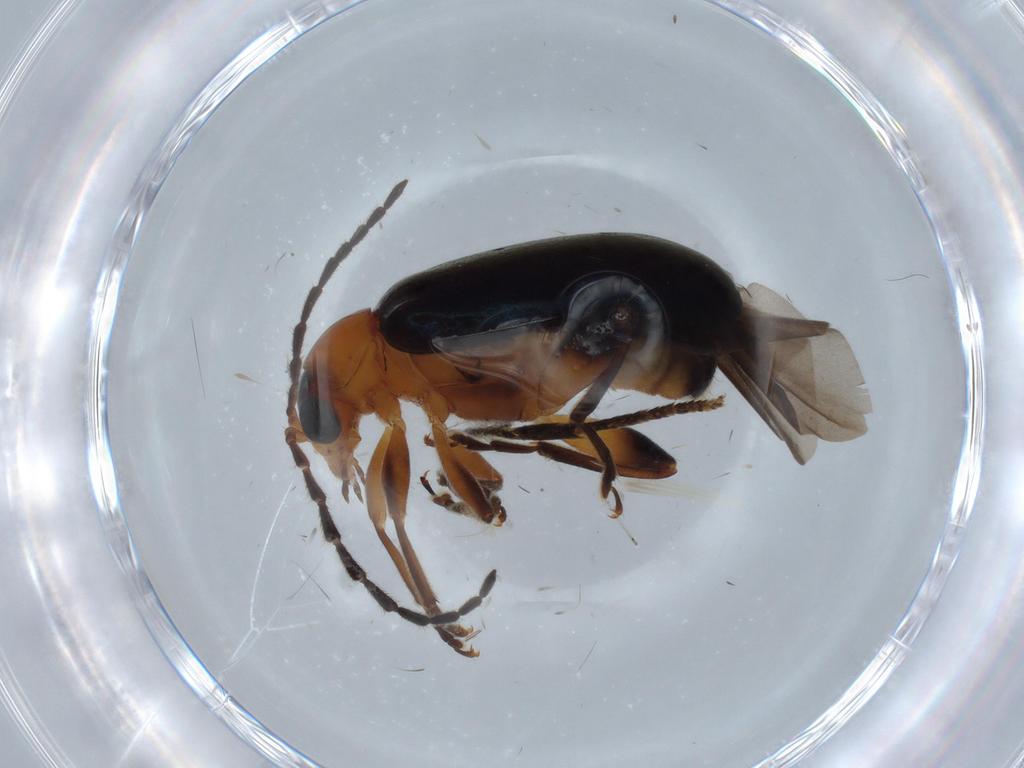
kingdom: Animalia
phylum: Arthropoda
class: Insecta
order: Coleoptera
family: Chrysomelidae
